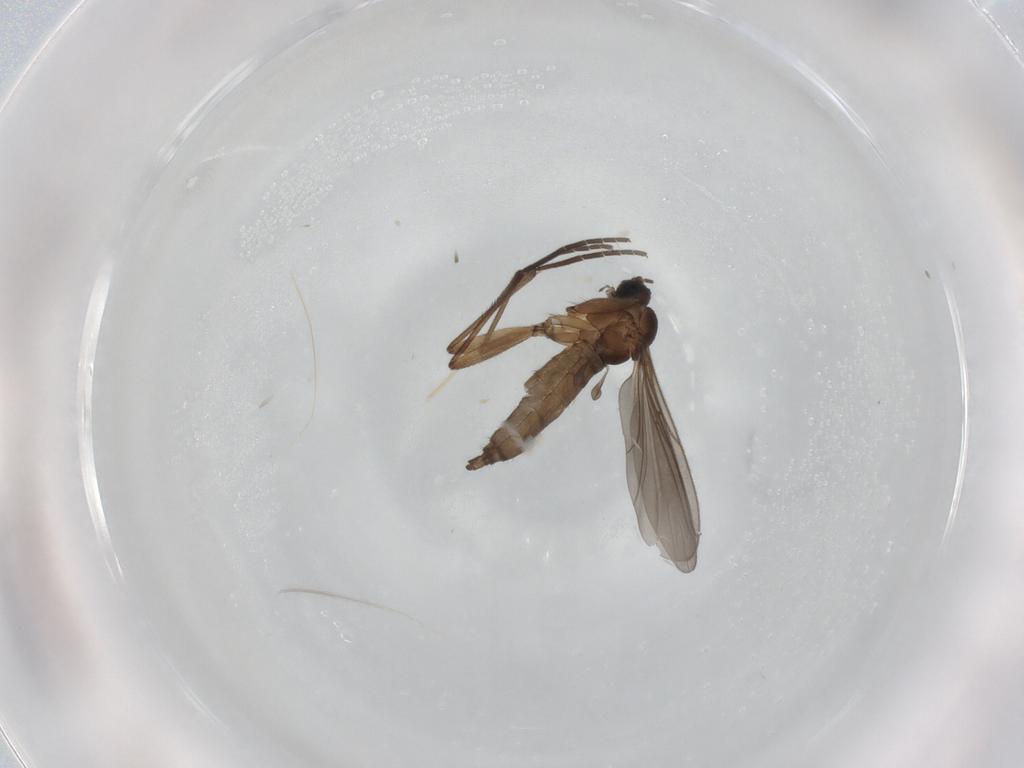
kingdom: Animalia
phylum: Arthropoda
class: Insecta
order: Diptera
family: Sciaridae
